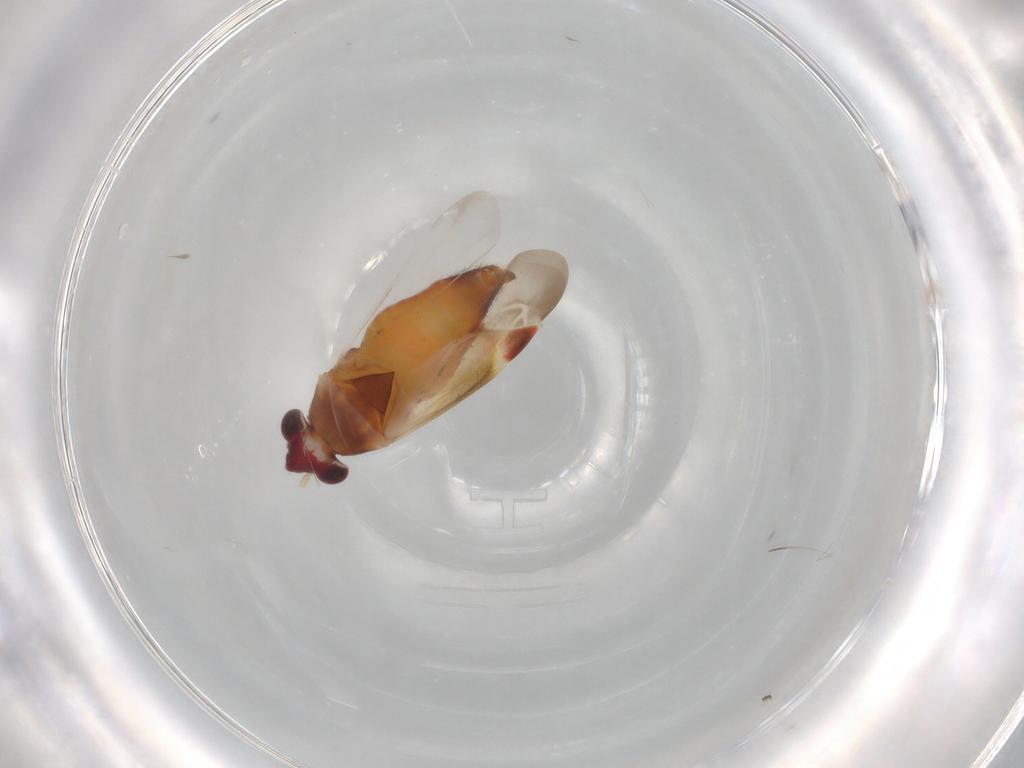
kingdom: Animalia
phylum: Arthropoda
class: Insecta
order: Hemiptera
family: Miridae
